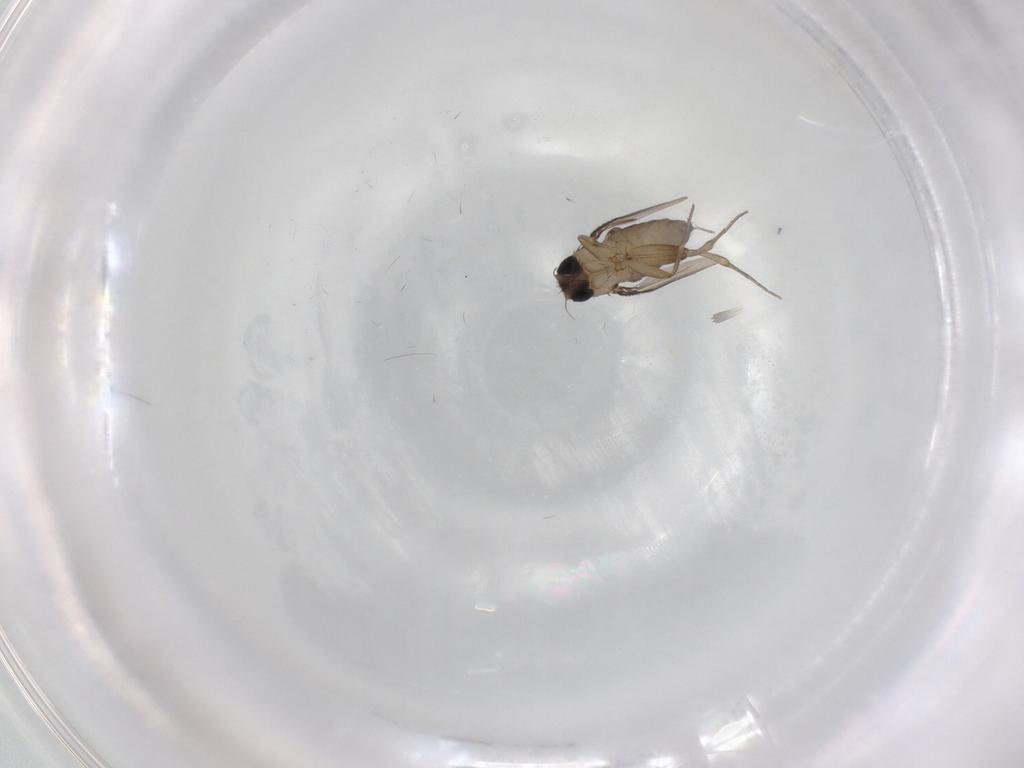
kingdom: Animalia
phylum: Arthropoda
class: Insecta
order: Diptera
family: Phoridae
